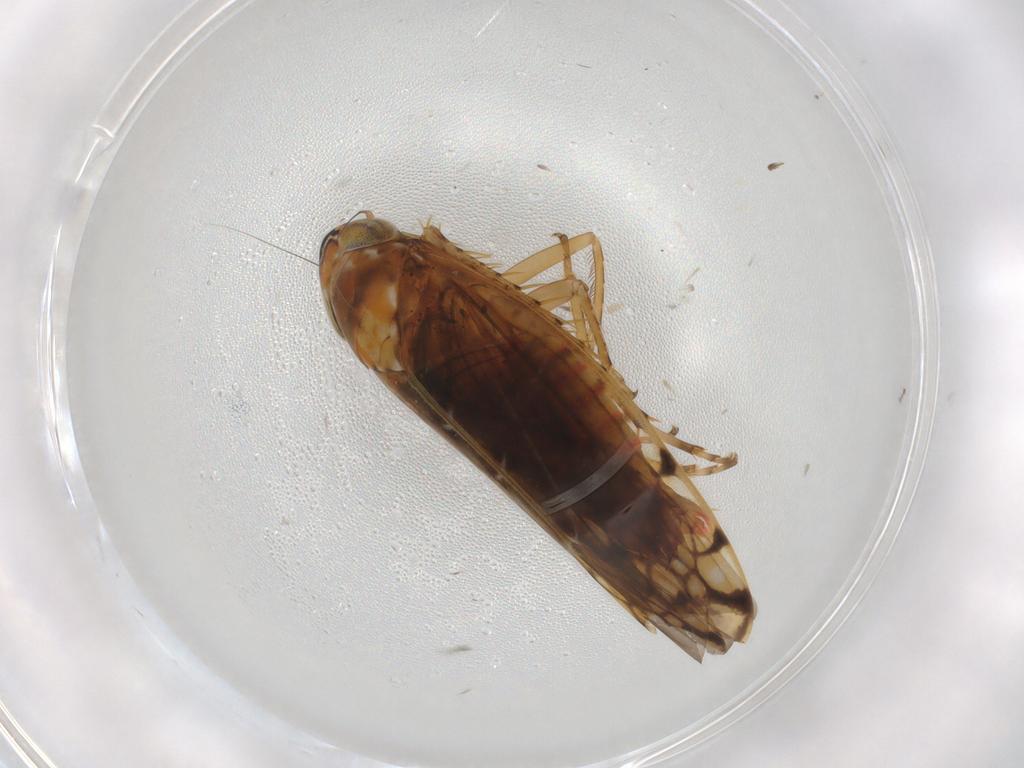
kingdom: Animalia
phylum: Arthropoda
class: Insecta
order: Hemiptera
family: Cicadellidae
